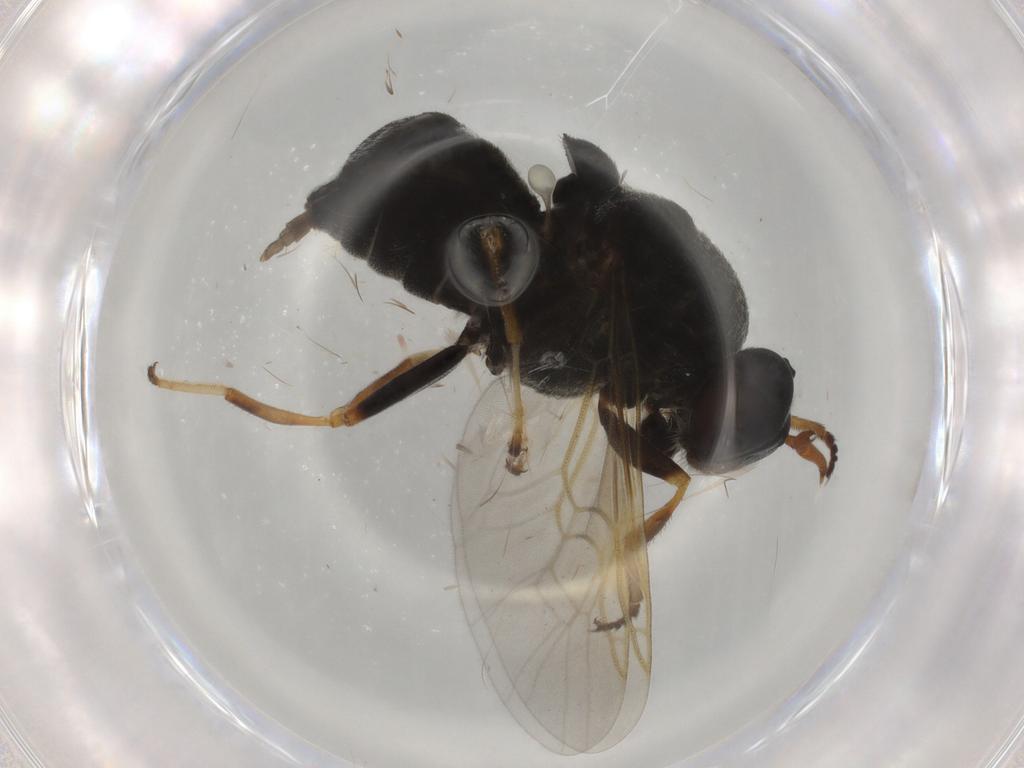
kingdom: Animalia
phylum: Arthropoda
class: Insecta
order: Diptera
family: Stratiomyidae
